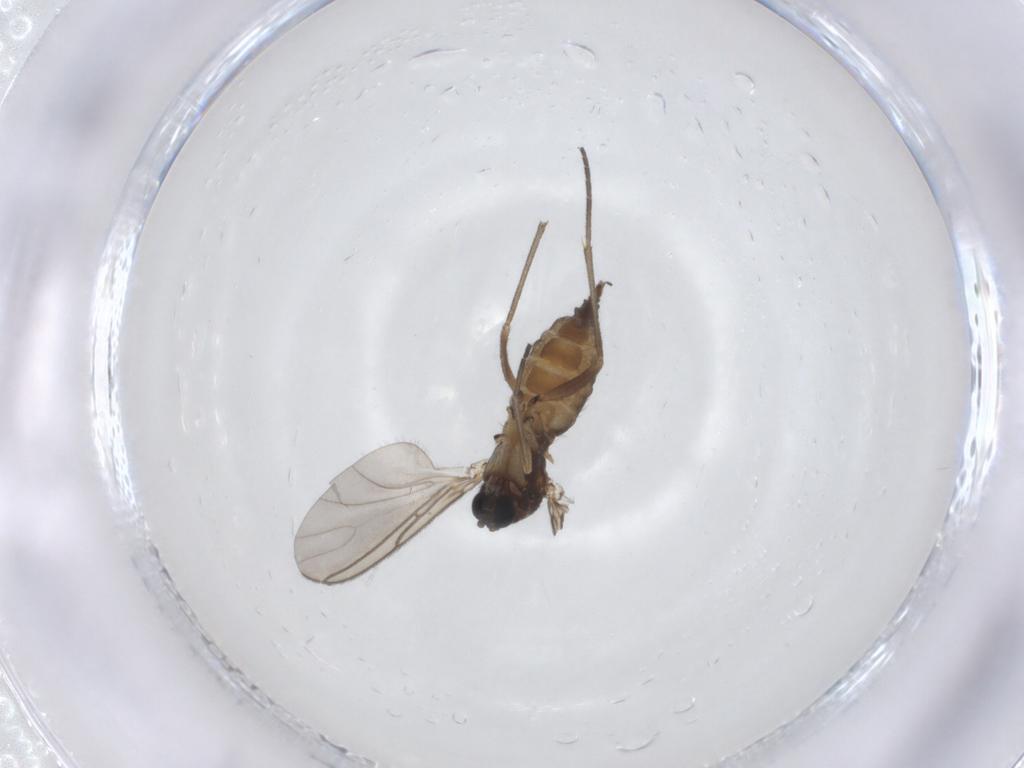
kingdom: Animalia
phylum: Arthropoda
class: Insecta
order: Diptera
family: Sciaridae
